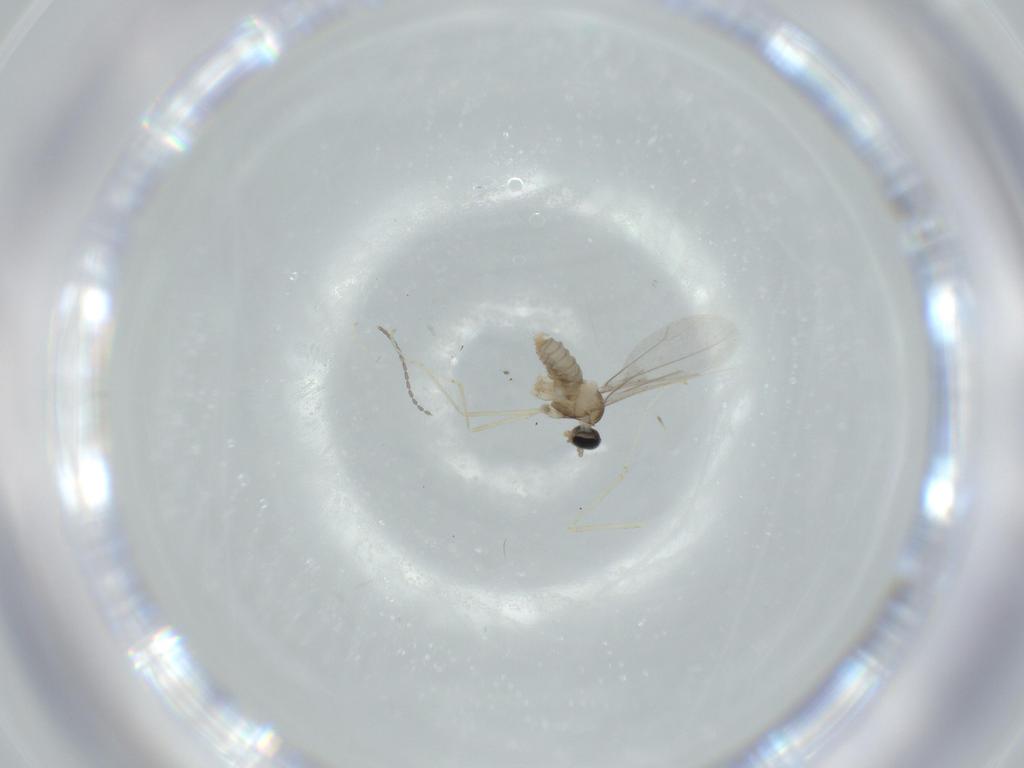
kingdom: Animalia
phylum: Arthropoda
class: Insecta
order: Diptera
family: Cecidomyiidae
